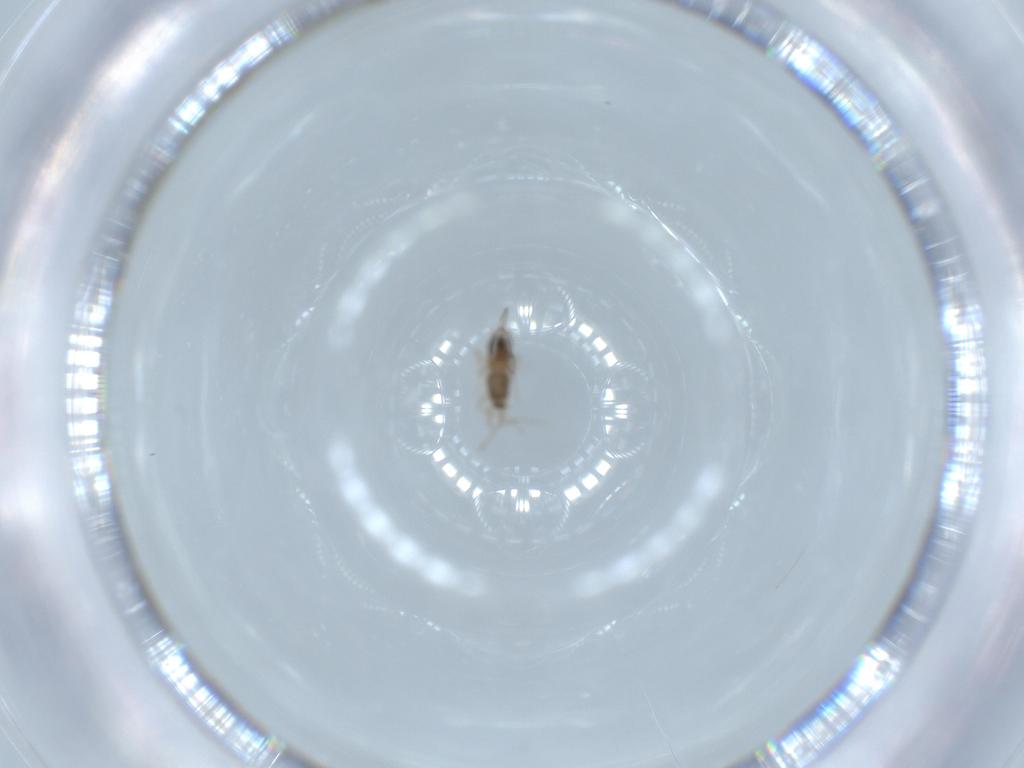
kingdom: Animalia
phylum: Arthropoda
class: Insecta
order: Diptera
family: Cecidomyiidae
